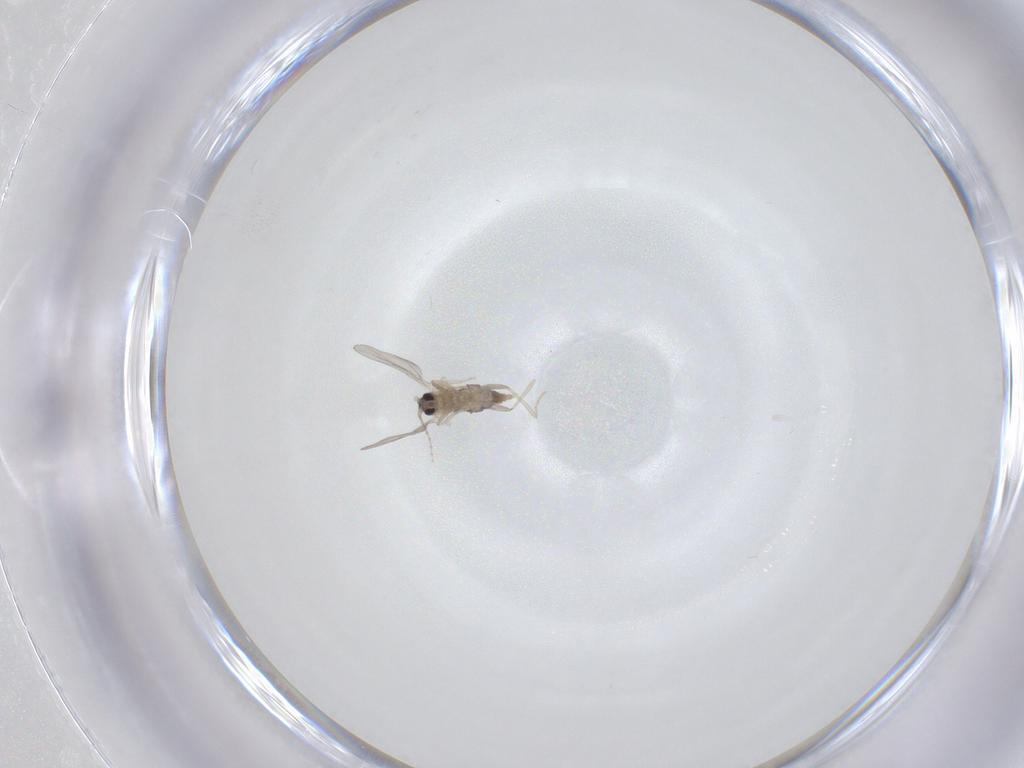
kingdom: Animalia
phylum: Arthropoda
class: Insecta
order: Diptera
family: Cecidomyiidae
